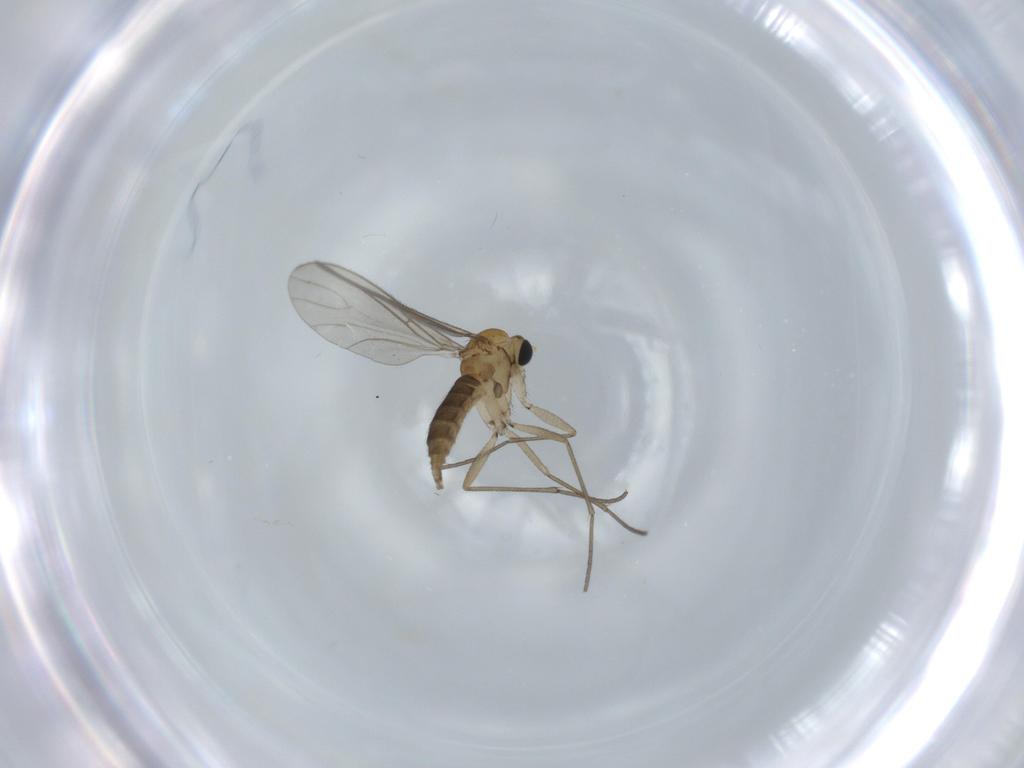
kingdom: Animalia
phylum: Arthropoda
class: Insecta
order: Diptera
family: Sciaridae
